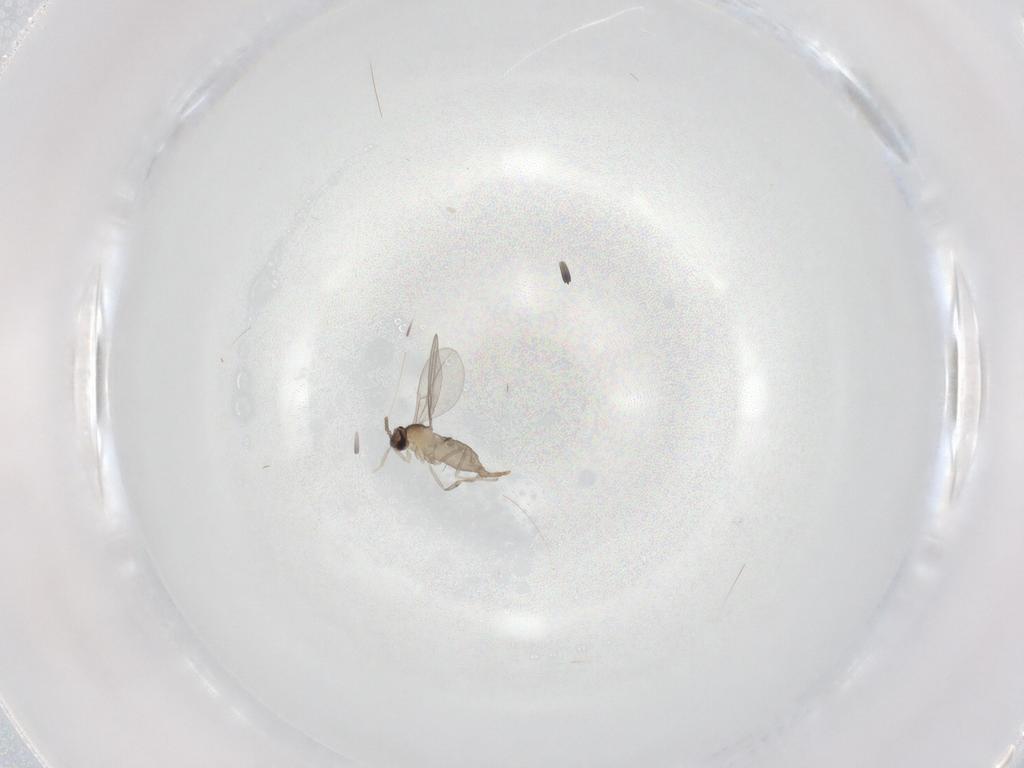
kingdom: Animalia
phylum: Arthropoda
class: Insecta
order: Diptera
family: Cecidomyiidae
